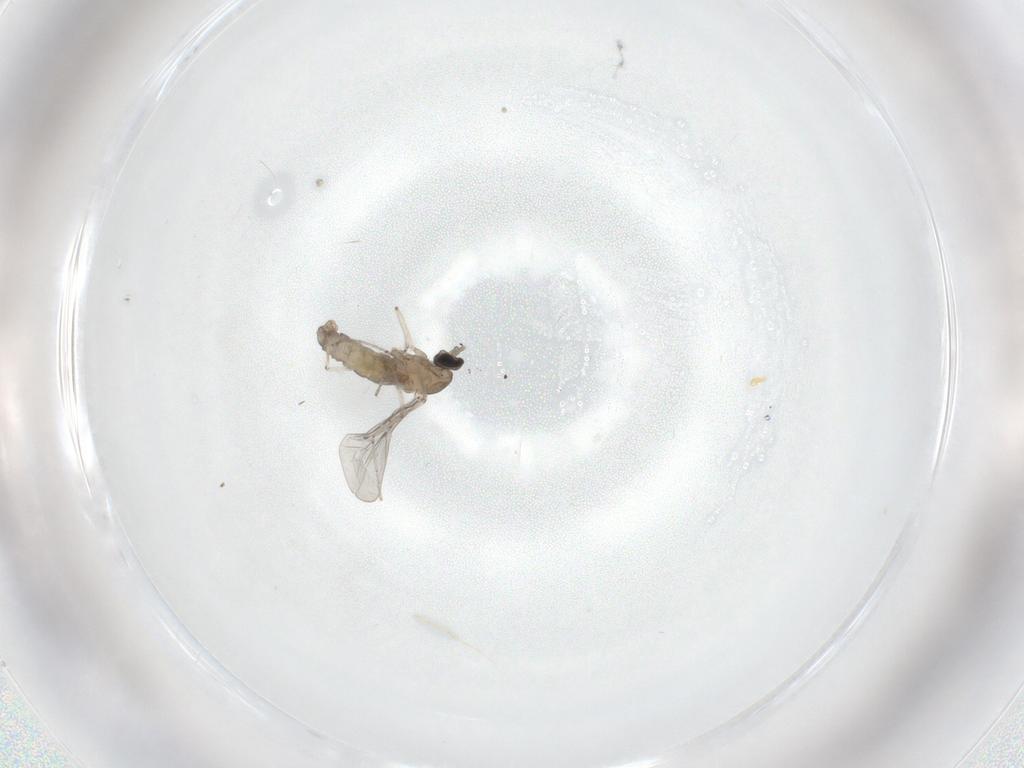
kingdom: Animalia
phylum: Arthropoda
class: Insecta
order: Diptera
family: Cecidomyiidae
